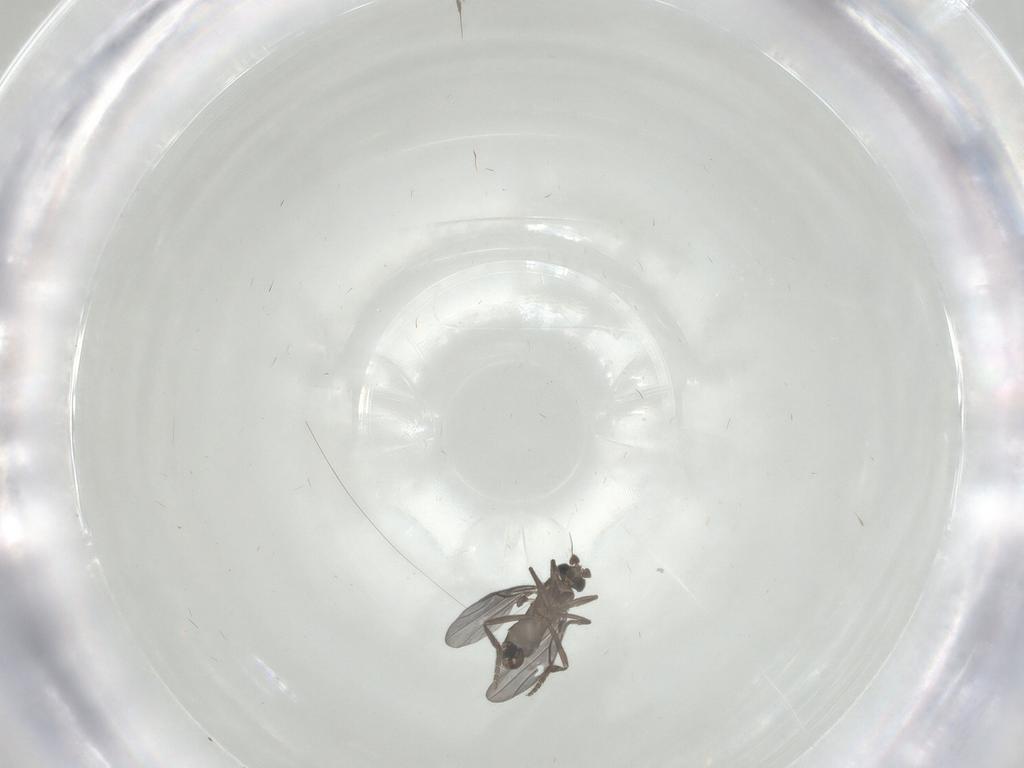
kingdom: Animalia
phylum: Arthropoda
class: Insecta
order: Diptera
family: Phoridae
